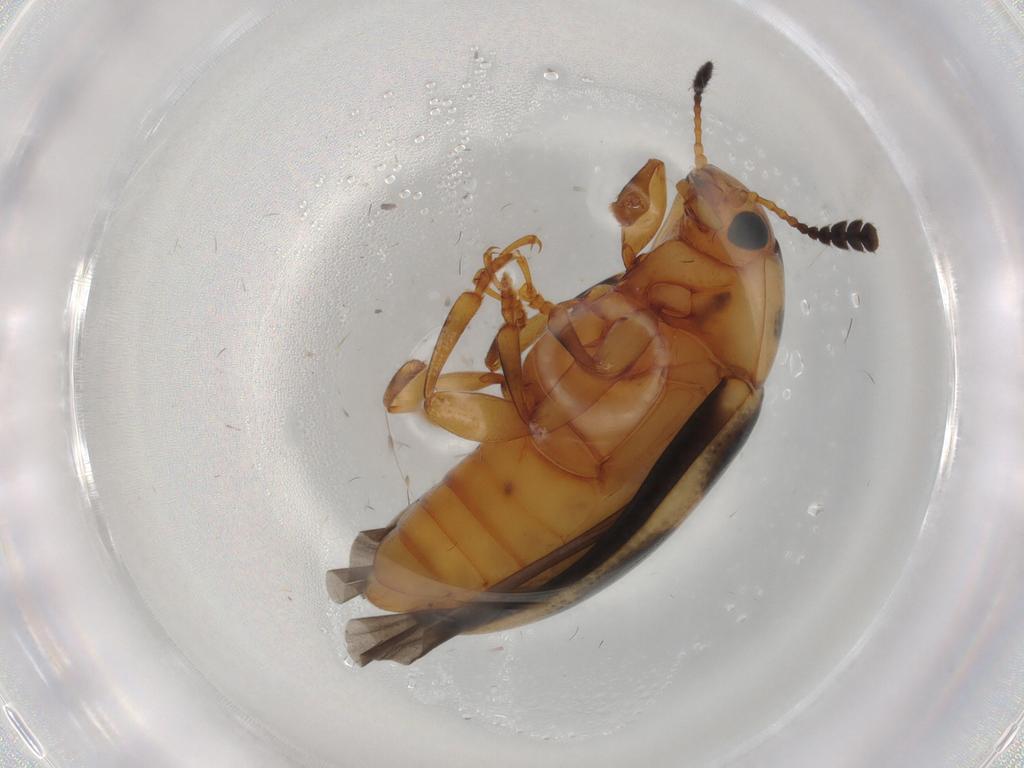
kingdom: Animalia
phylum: Arthropoda
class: Insecta
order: Coleoptera
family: Erotylidae
